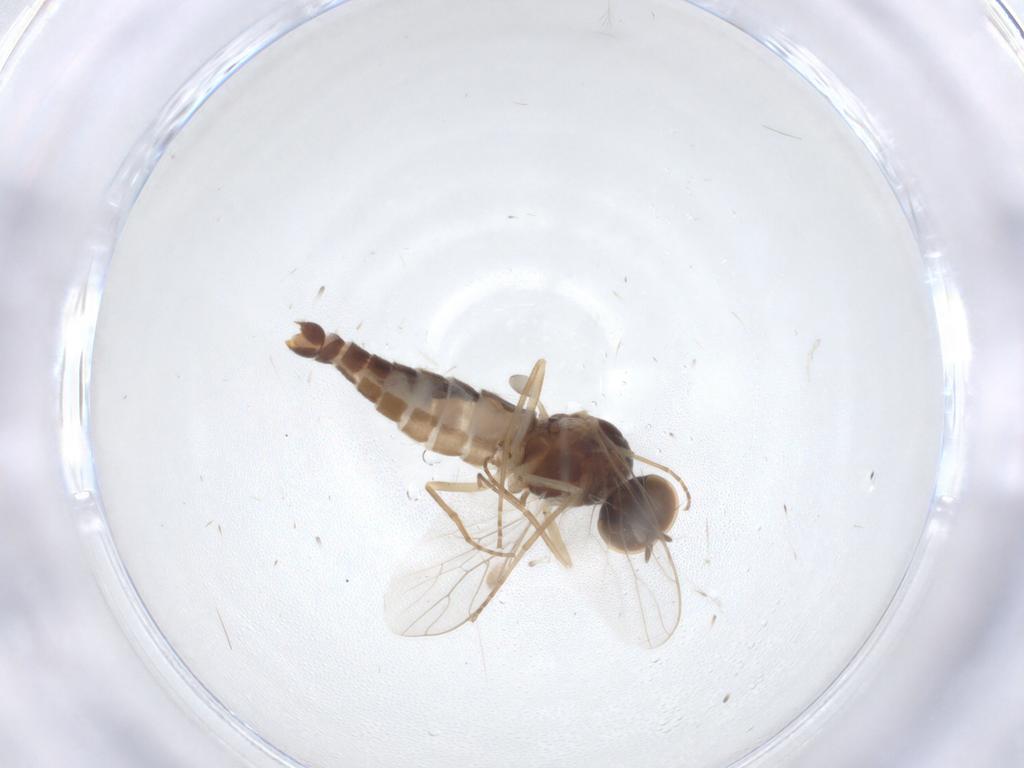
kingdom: Animalia
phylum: Arthropoda
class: Insecta
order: Diptera
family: Scenopinidae
